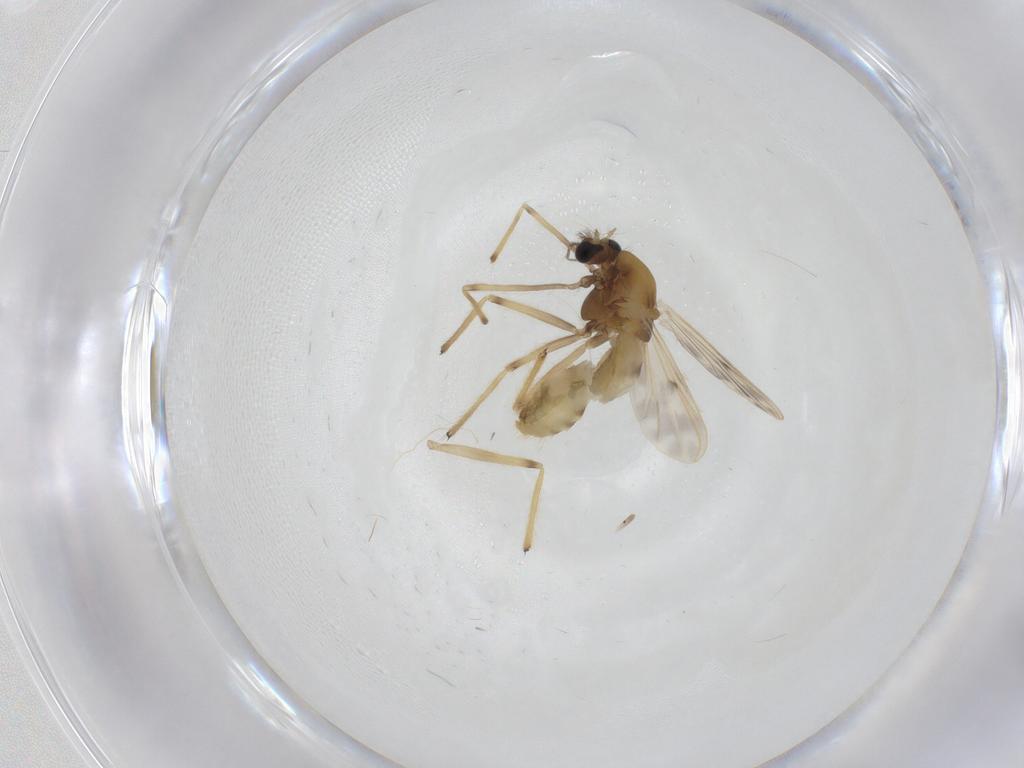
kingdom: Animalia
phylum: Arthropoda
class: Insecta
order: Diptera
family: Chironomidae
